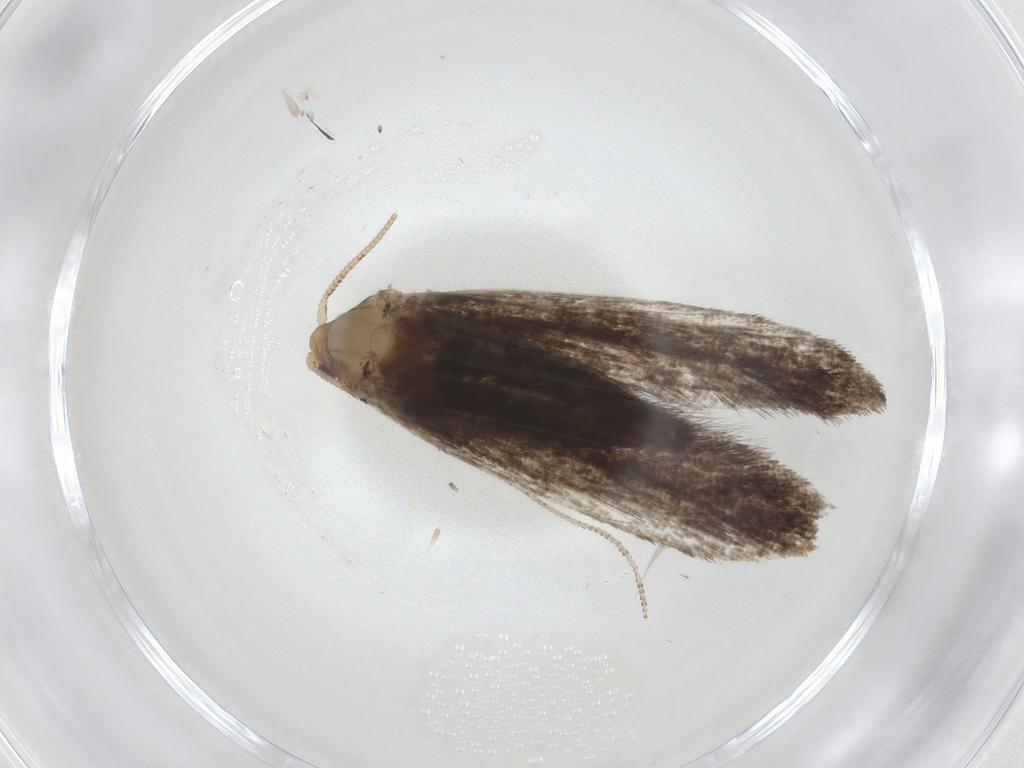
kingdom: Animalia
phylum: Arthropoda
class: Insecta
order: Lepidoptera
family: Tineidae
